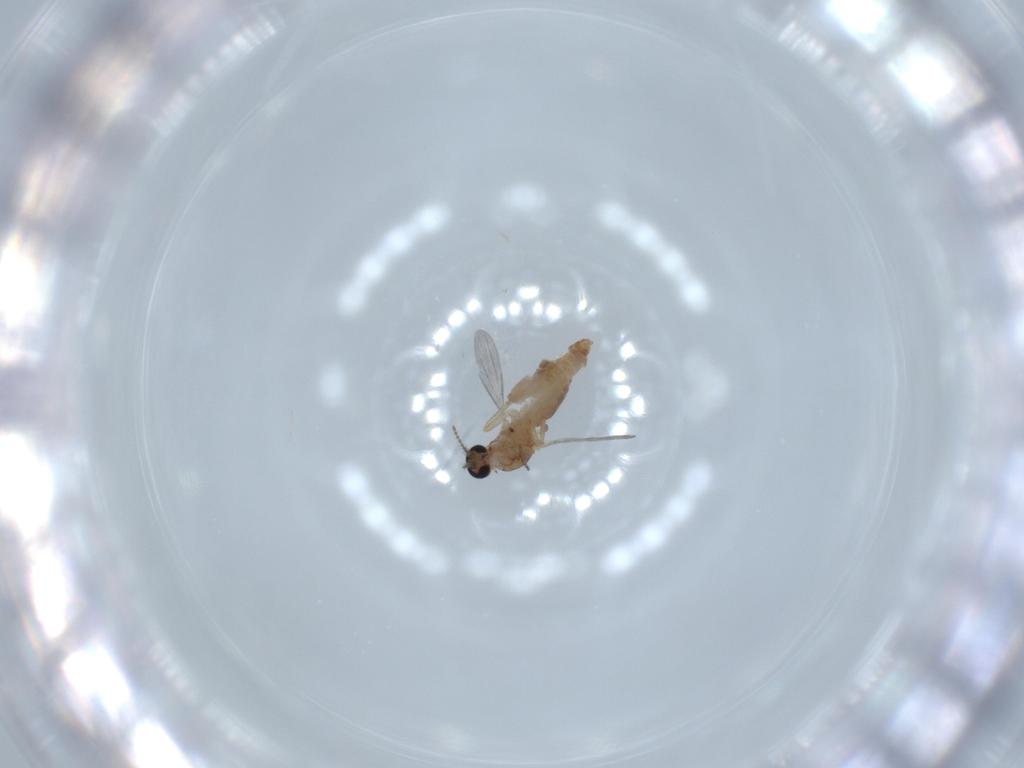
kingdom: Animalia
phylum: Arthropoda
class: Insecta
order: Diptera
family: Ceratopogonidae
